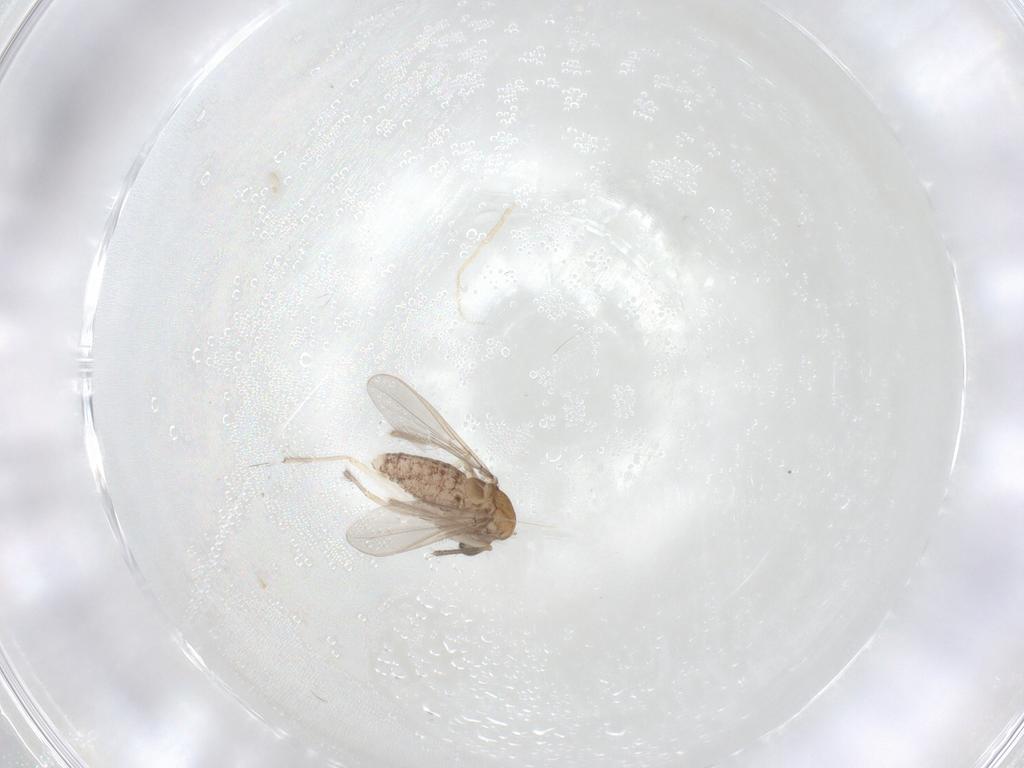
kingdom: Animalia
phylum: Arthropoda
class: Insecta
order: Diptera
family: Chironomidae
